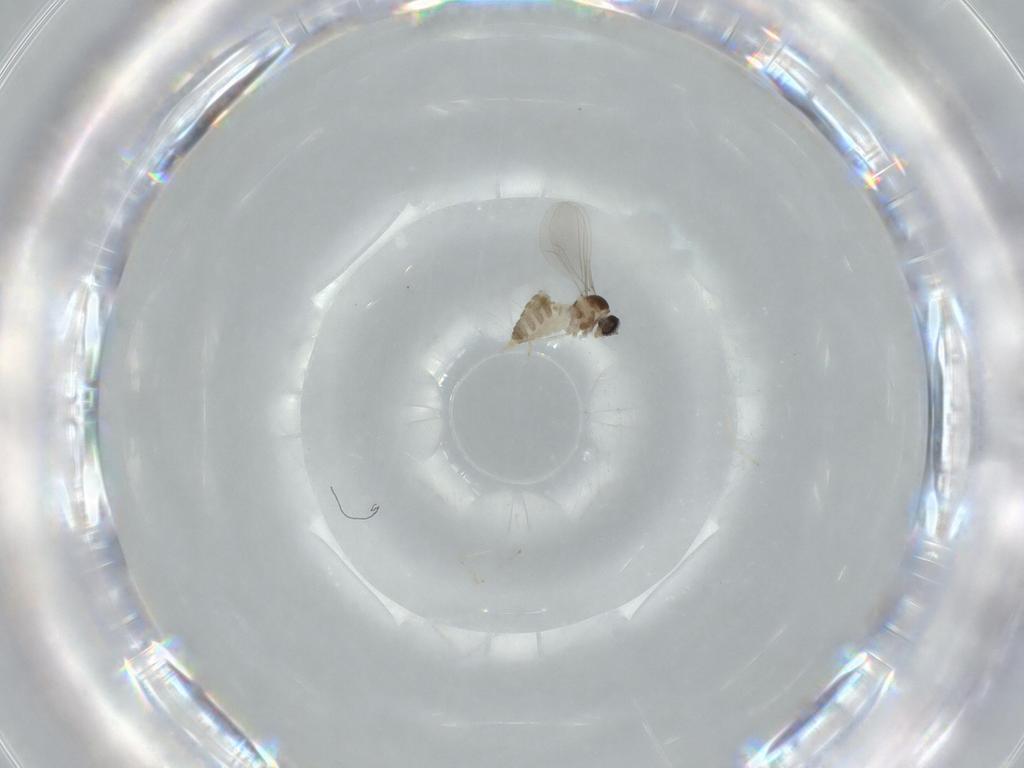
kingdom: Animalia
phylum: Arthropoda
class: Insecta
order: Diptera
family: Cecidomyiidae
